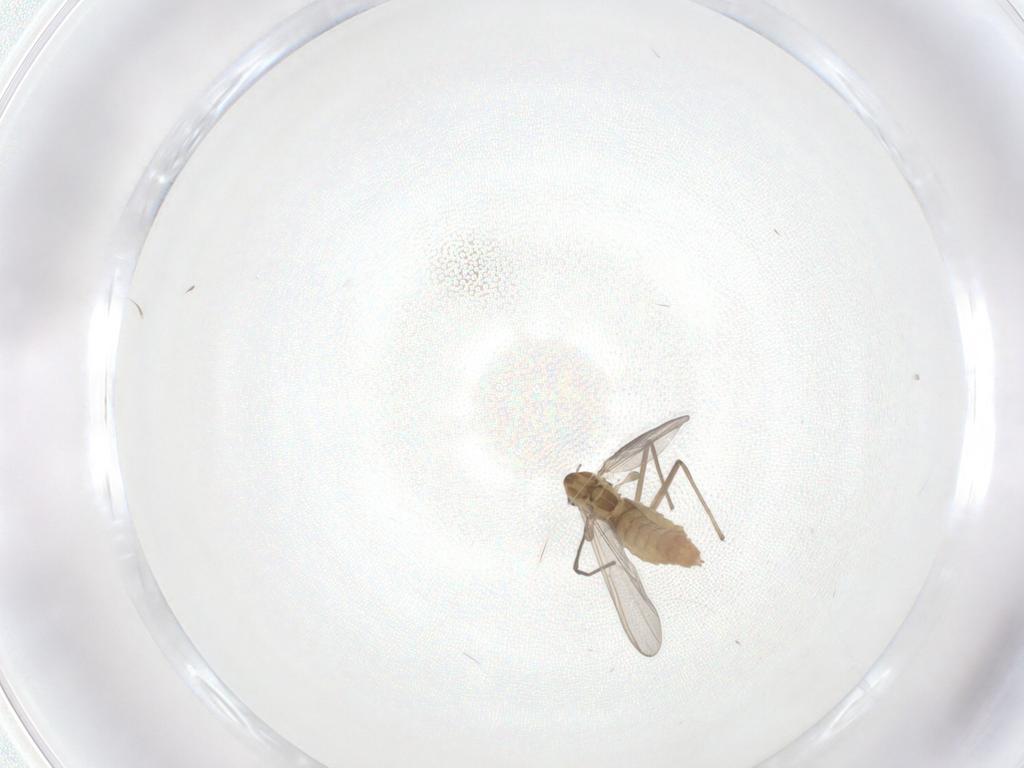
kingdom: Animalia
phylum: Arthropoda
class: Insecta
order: Diptera
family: Chironomidae
